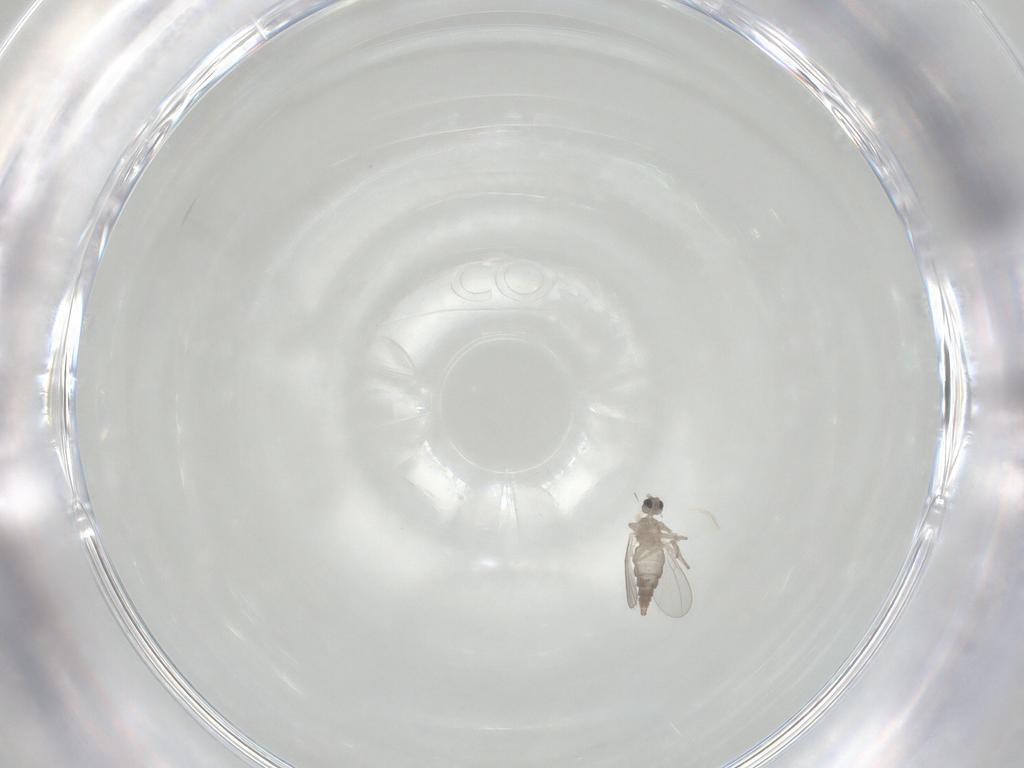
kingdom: Animalia
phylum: Arthropoda
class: Insecta
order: Diptera
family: Cecidomyiidae
